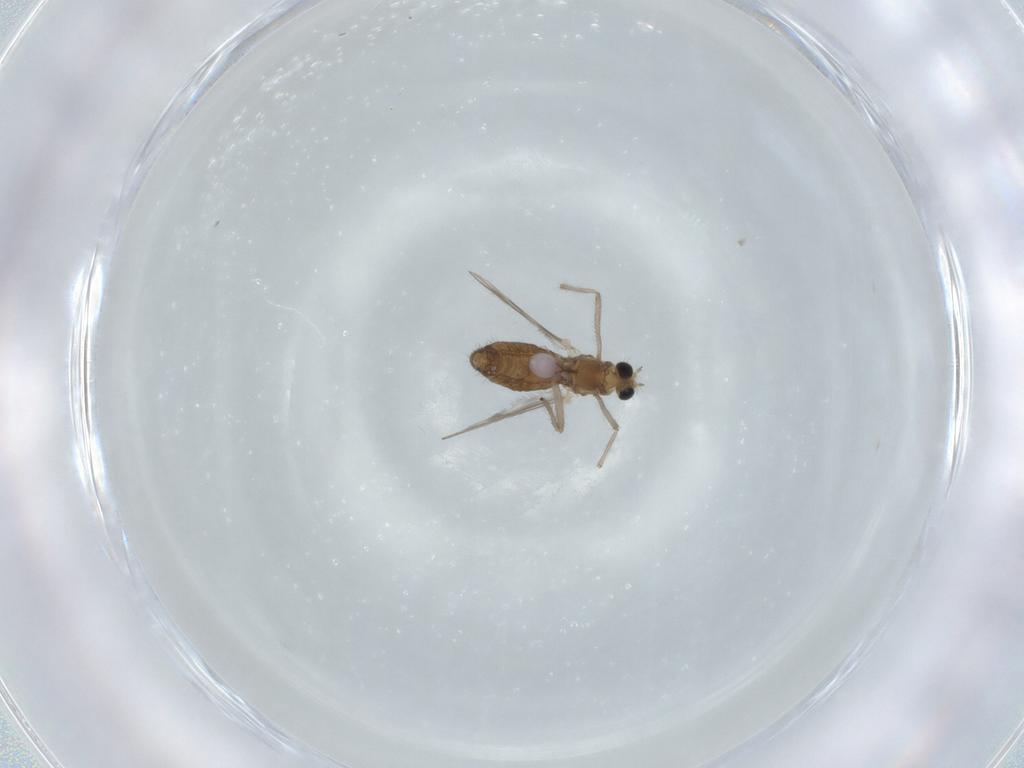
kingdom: Animalia
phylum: Arthropoda
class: Insecta
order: Diptera
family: Chironomidae
